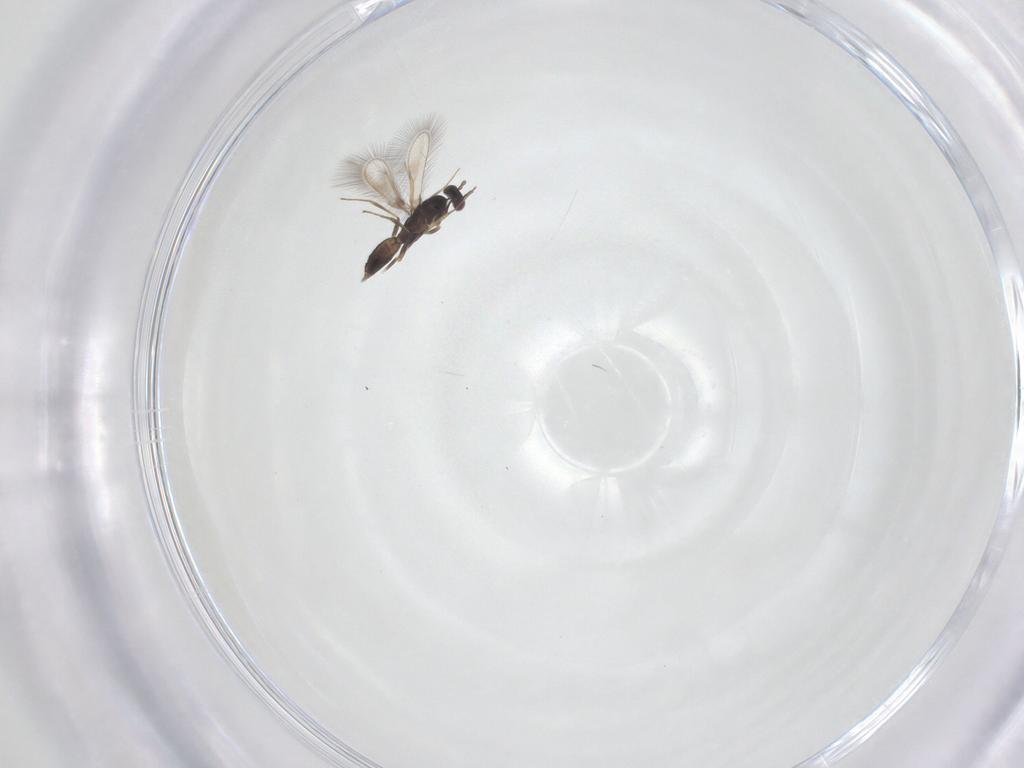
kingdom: Animalia
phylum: Arthropoda
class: Insecta
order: Hymenoptera
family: Mymaridae
